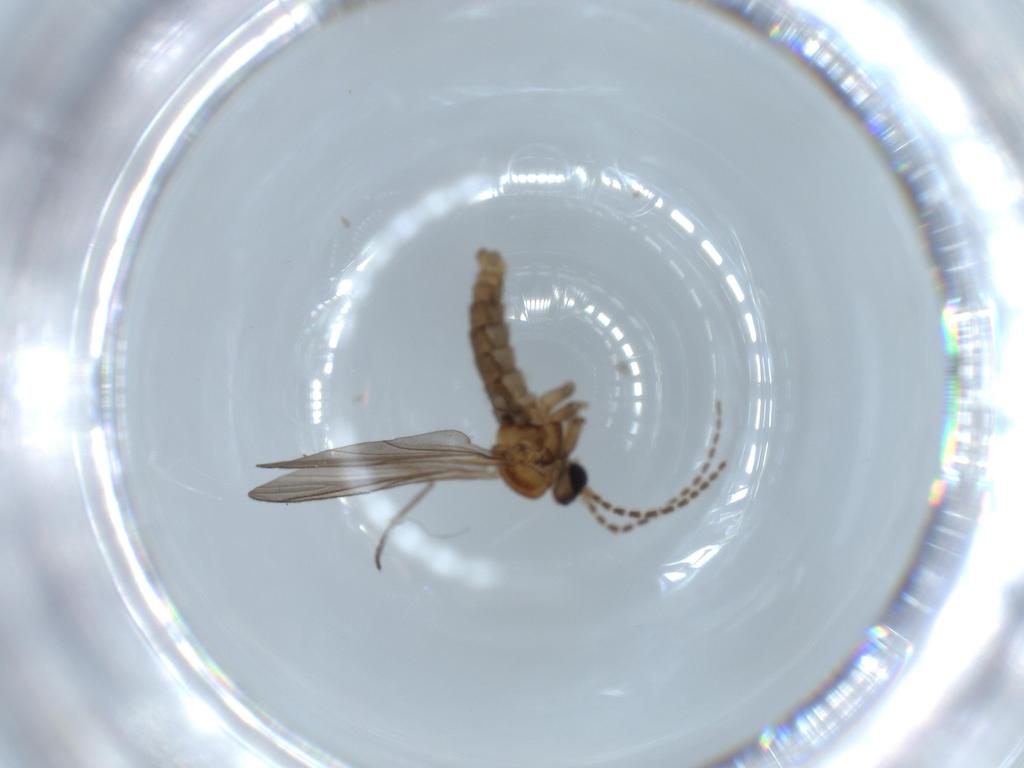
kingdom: Animalia
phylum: Arthropoda
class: Insecta
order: Diptera
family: Sciaridae
